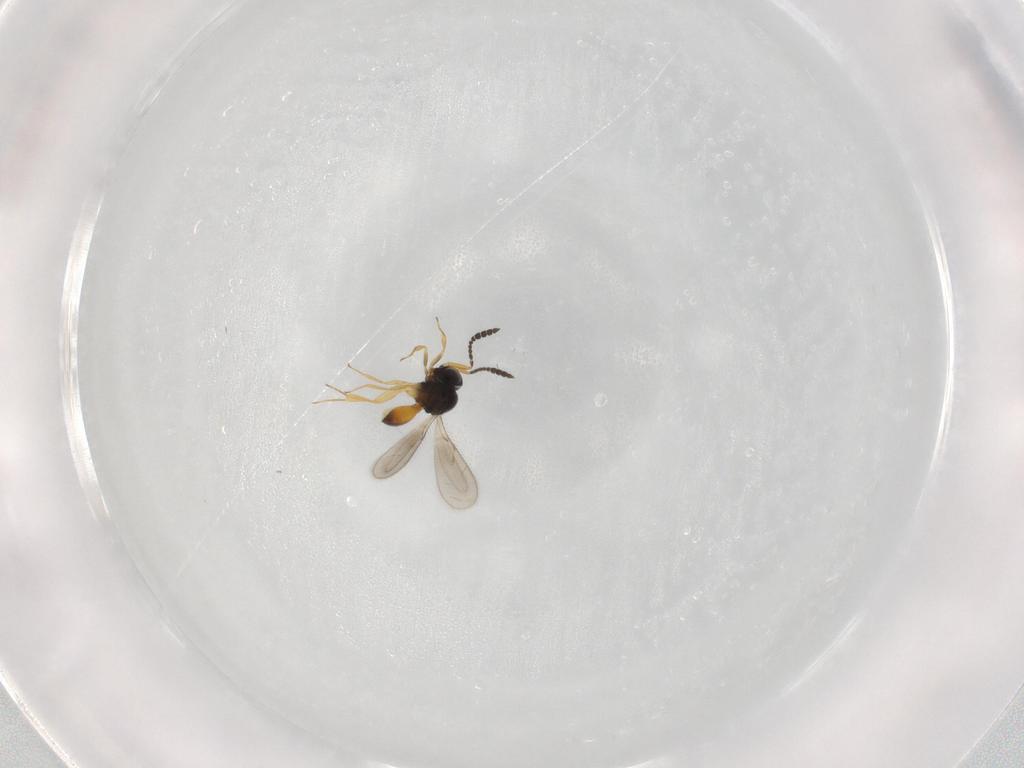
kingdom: Animalia
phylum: Arthropoda
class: Insecta
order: Hymenoptera
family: Scelionidae
